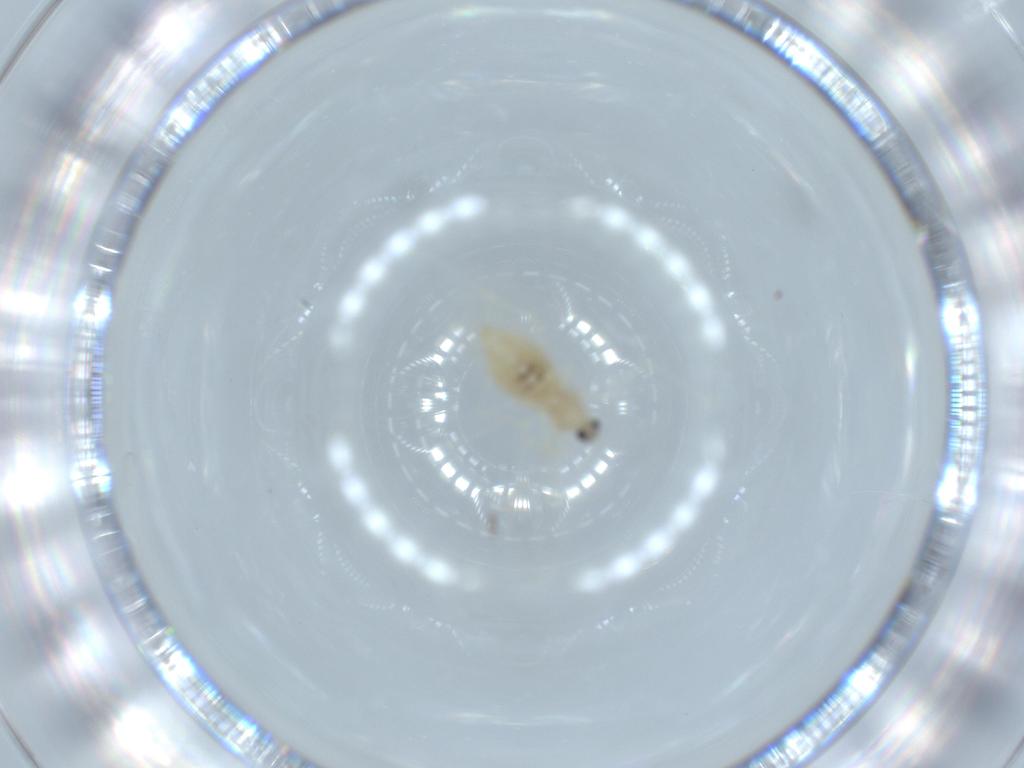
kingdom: Animalia
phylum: Arthropoda
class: Insecta
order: Diptera
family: Cecidomyiidae
